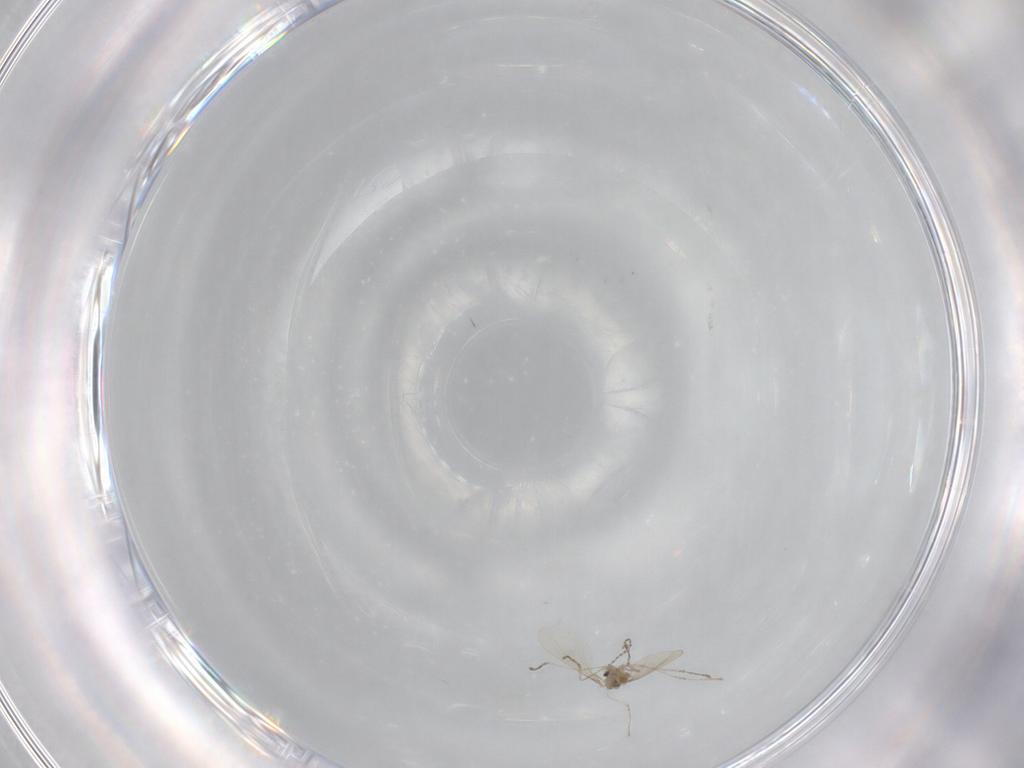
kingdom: Animalia
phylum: Arthropoda
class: Insecta
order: Diptera
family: Cecidomyiidae
